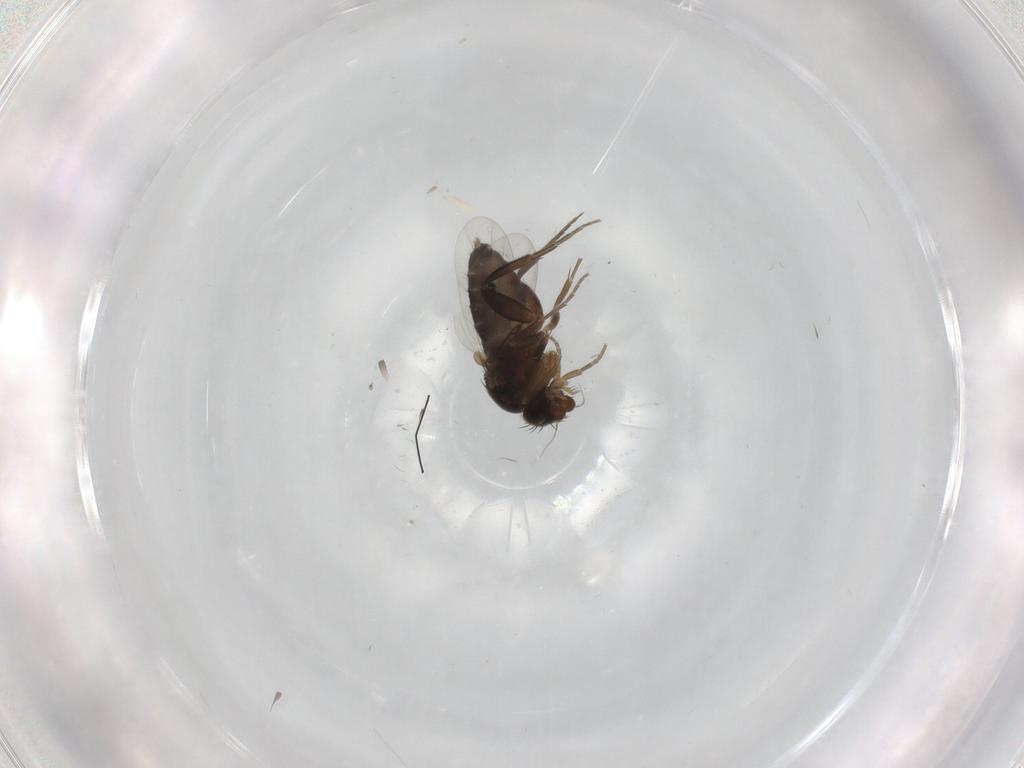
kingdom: Animalia
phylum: Arthropoda
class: Insecta
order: Diptera
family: Phoridae
